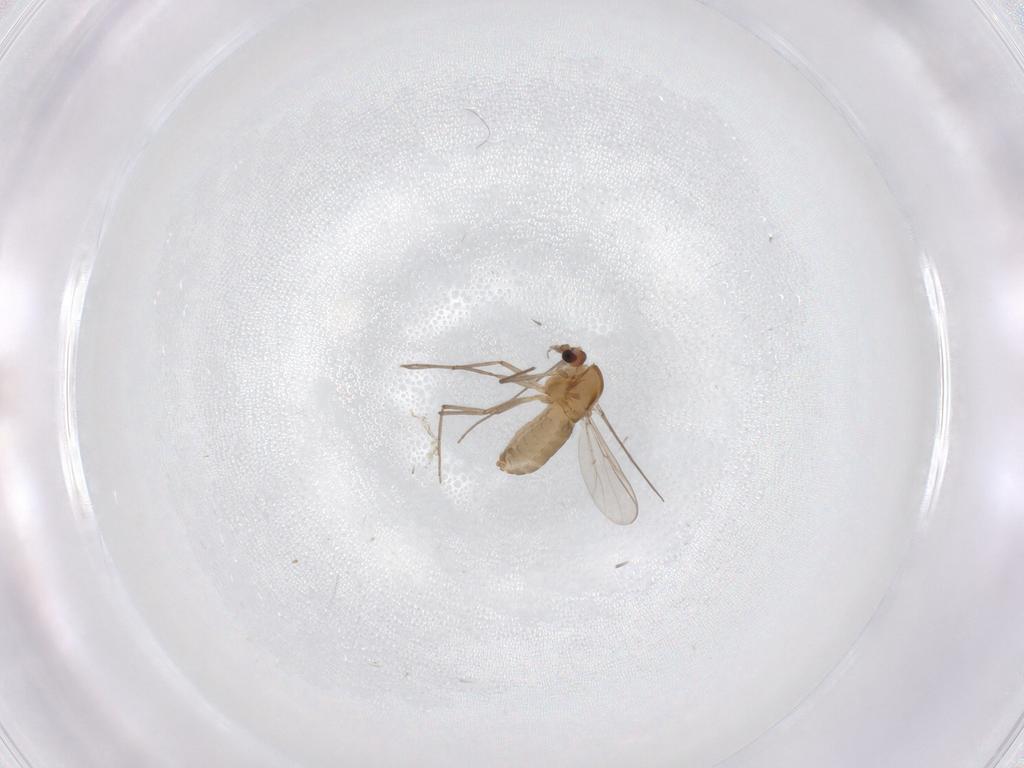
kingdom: Animalia
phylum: Arthropoda
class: Insecta
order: Diptera
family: Chironomidae
